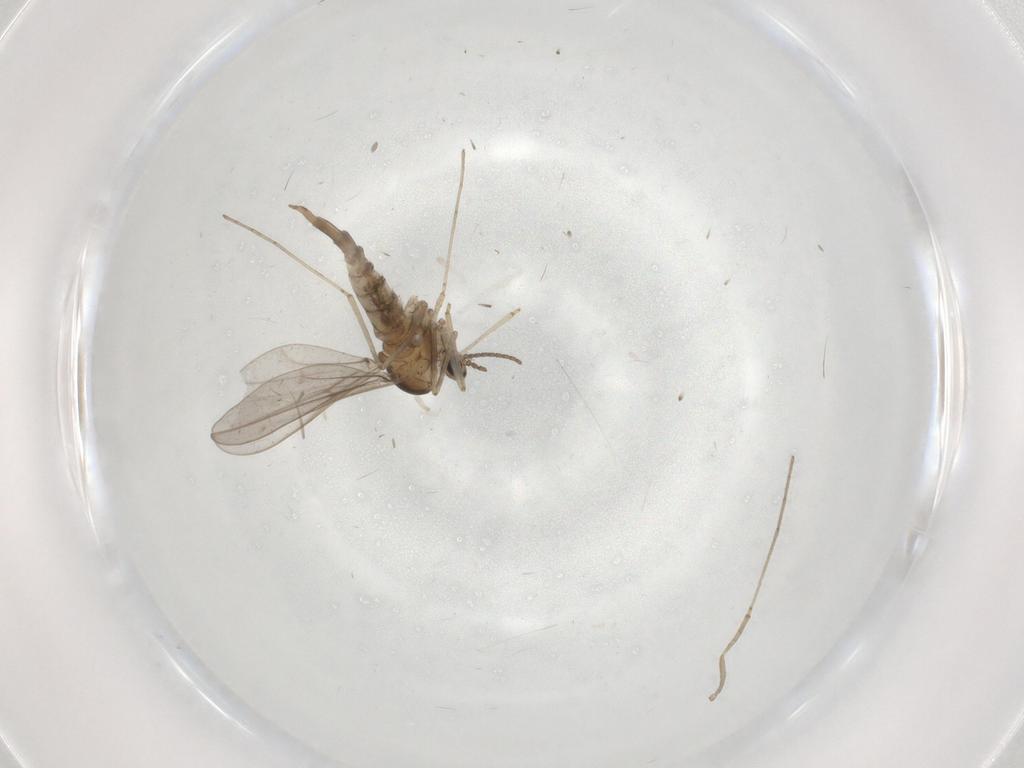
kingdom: Animalia
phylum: Arthropoda
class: Insecta
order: Diptera
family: Cecidomyiidae
